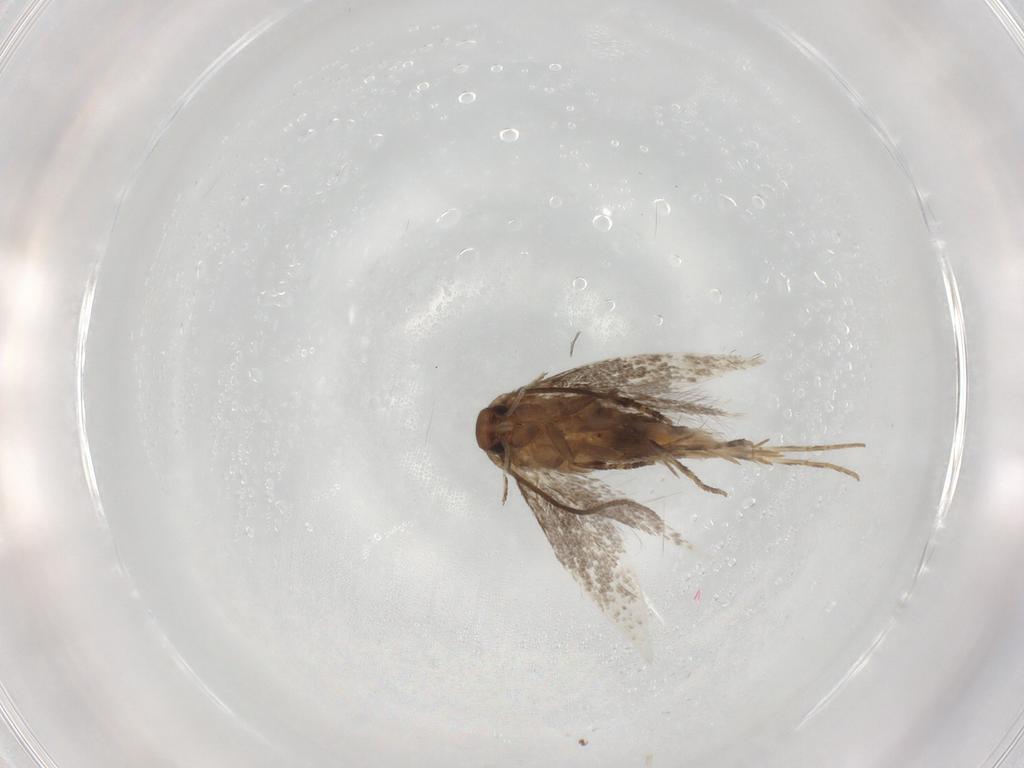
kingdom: Animalia
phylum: Arthropoda
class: Insecta
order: Lepidoptera
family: Elachistidae
